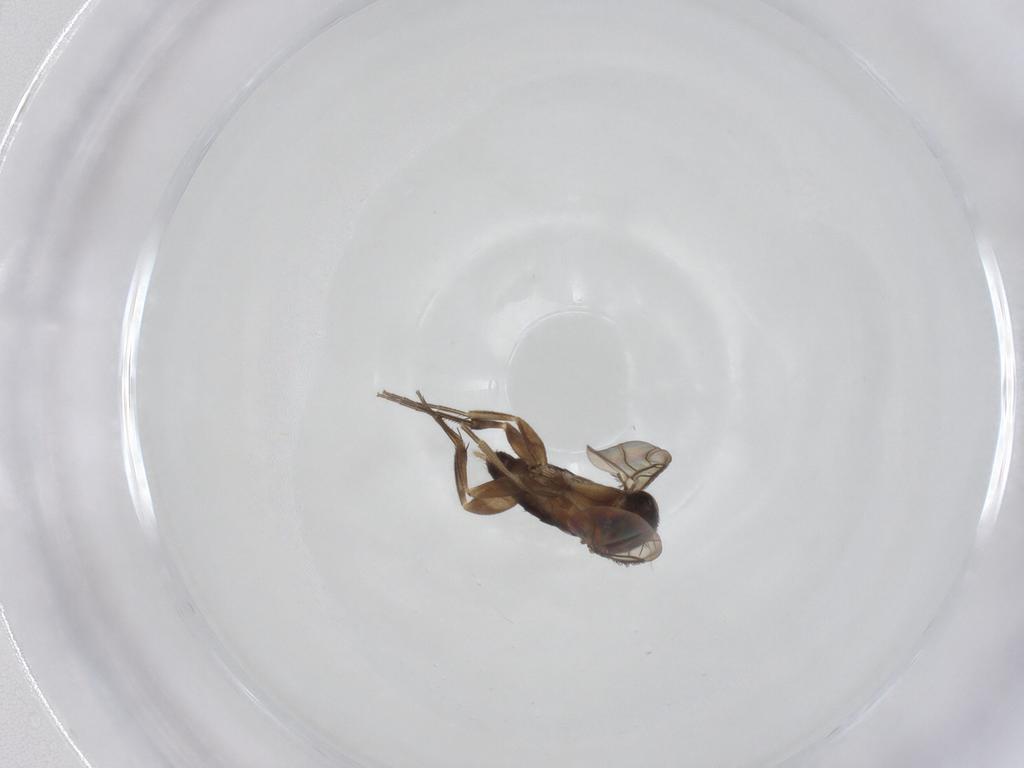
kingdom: Animalia
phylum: Arthropoda
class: Insecta
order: Diptera
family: Phoridae
